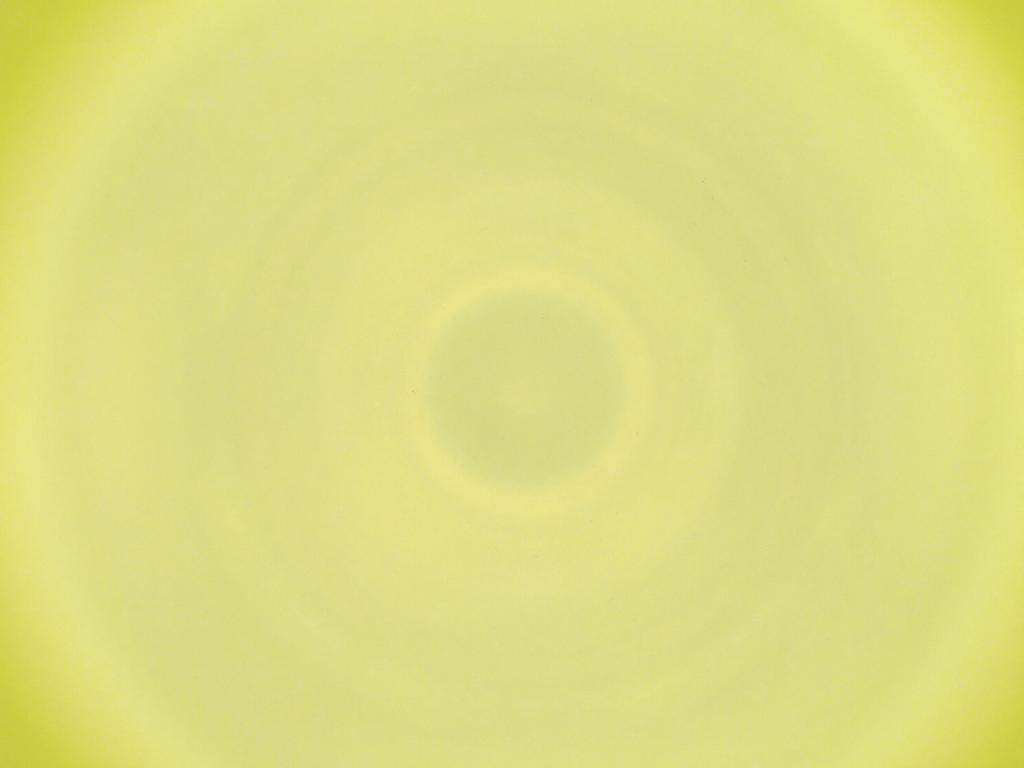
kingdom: Animalia
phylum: Arthropoda
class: Insecta
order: Diptera
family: Cecidomyiidae
